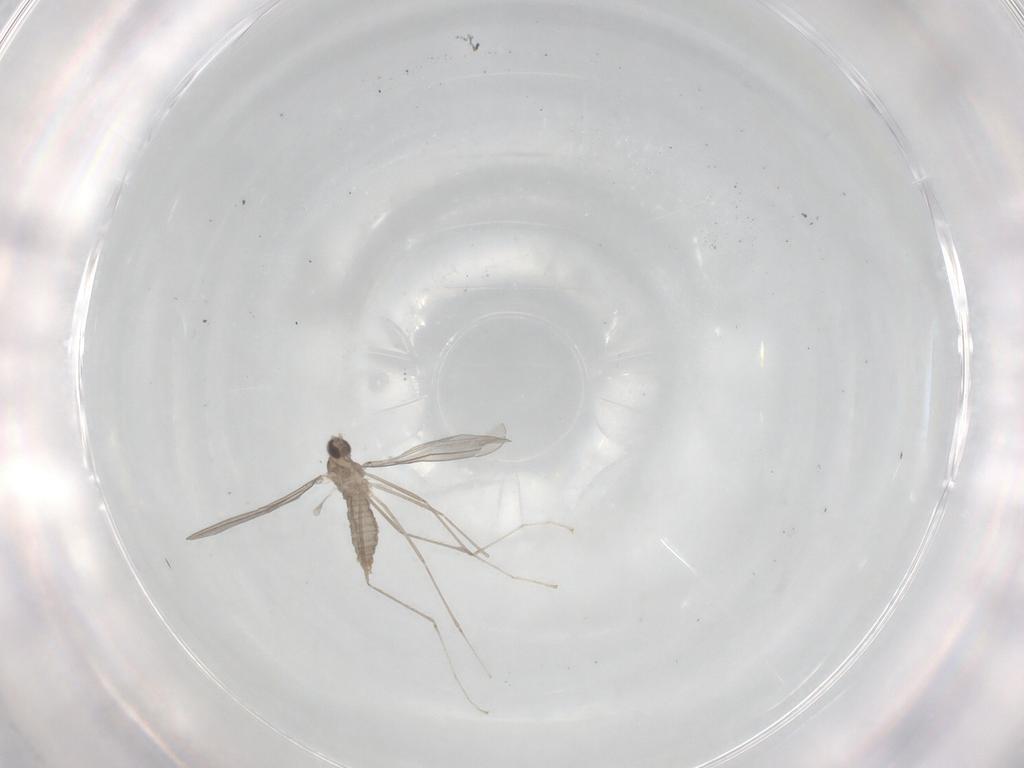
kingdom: Animalia
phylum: Arthropoda
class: Insecta
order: Diptera
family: Cecidomyiidae
